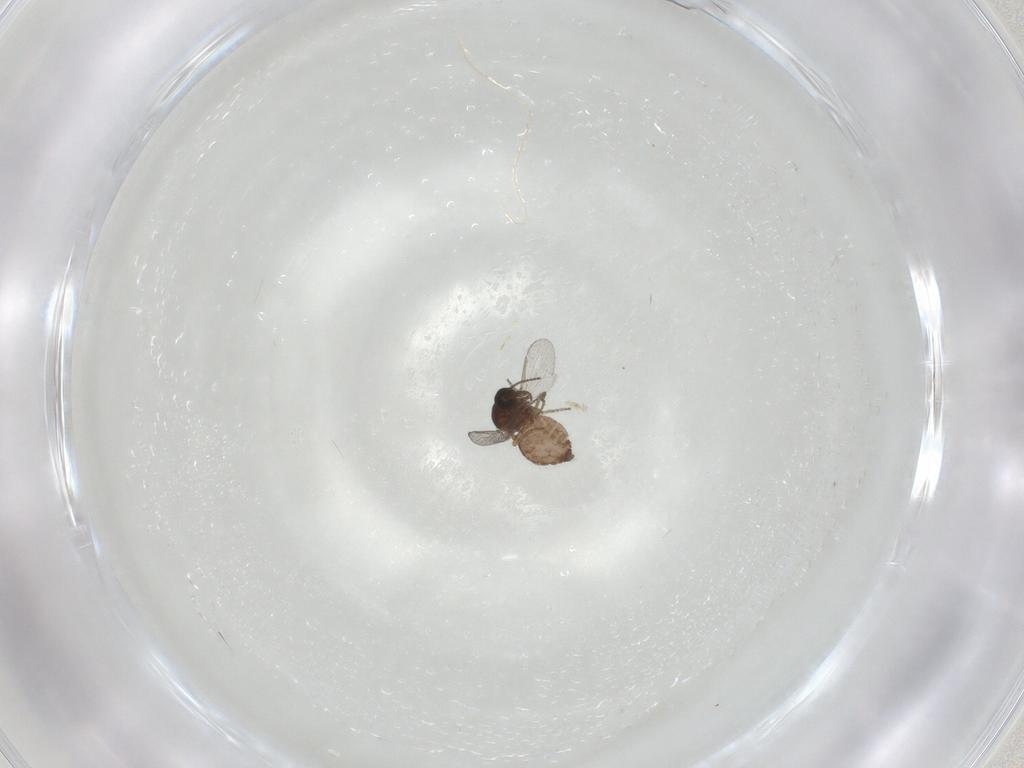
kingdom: Animalia
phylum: Arthropoda
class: Insecta
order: Diptera
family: Ceratopogonidae
